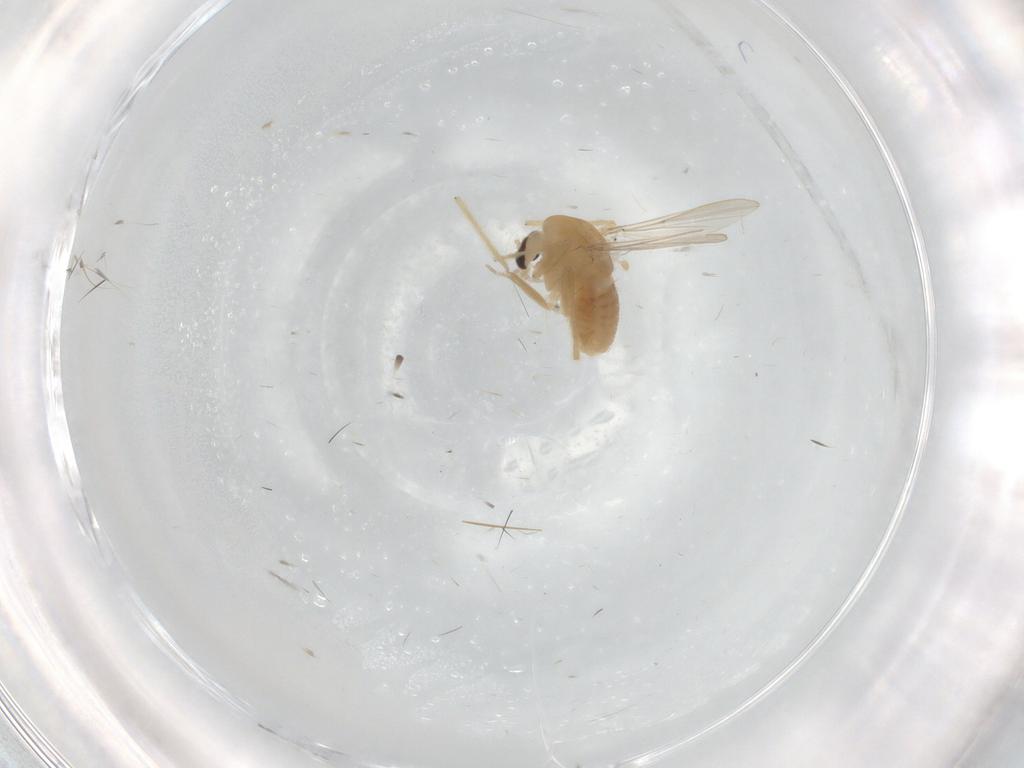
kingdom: Animalia
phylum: Arthropoda
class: Insecta
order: Diptera
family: Chironomidae
